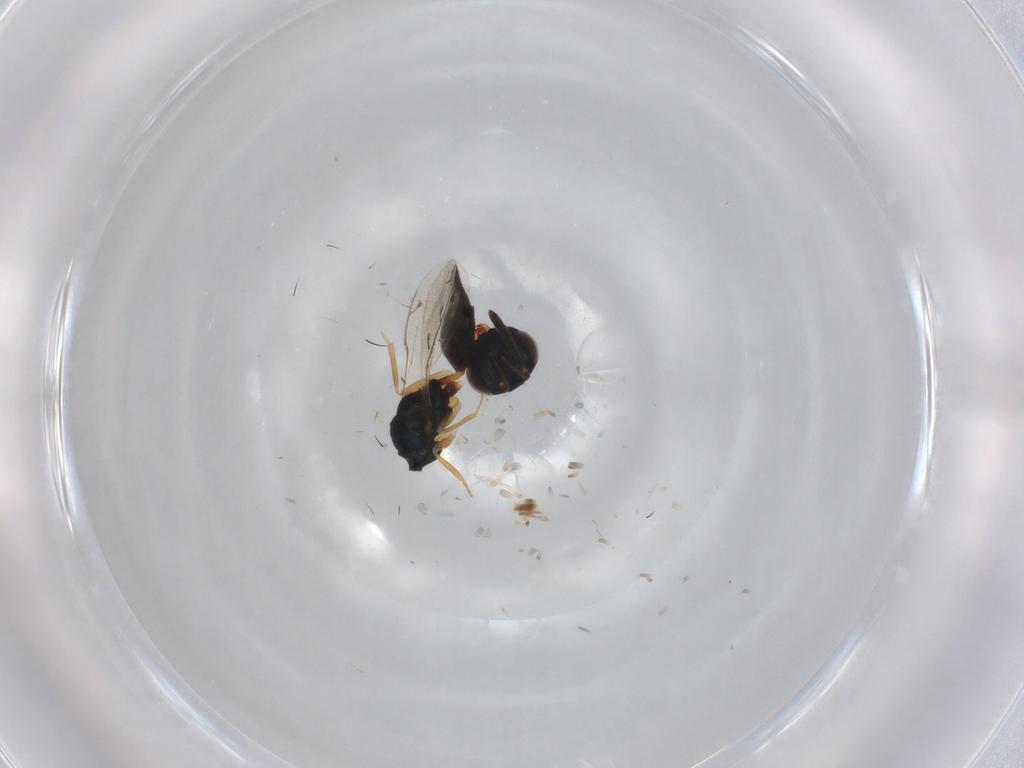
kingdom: Animalia
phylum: Arthropoda
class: Insecta
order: Hymenoptera
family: Pteromalidae
